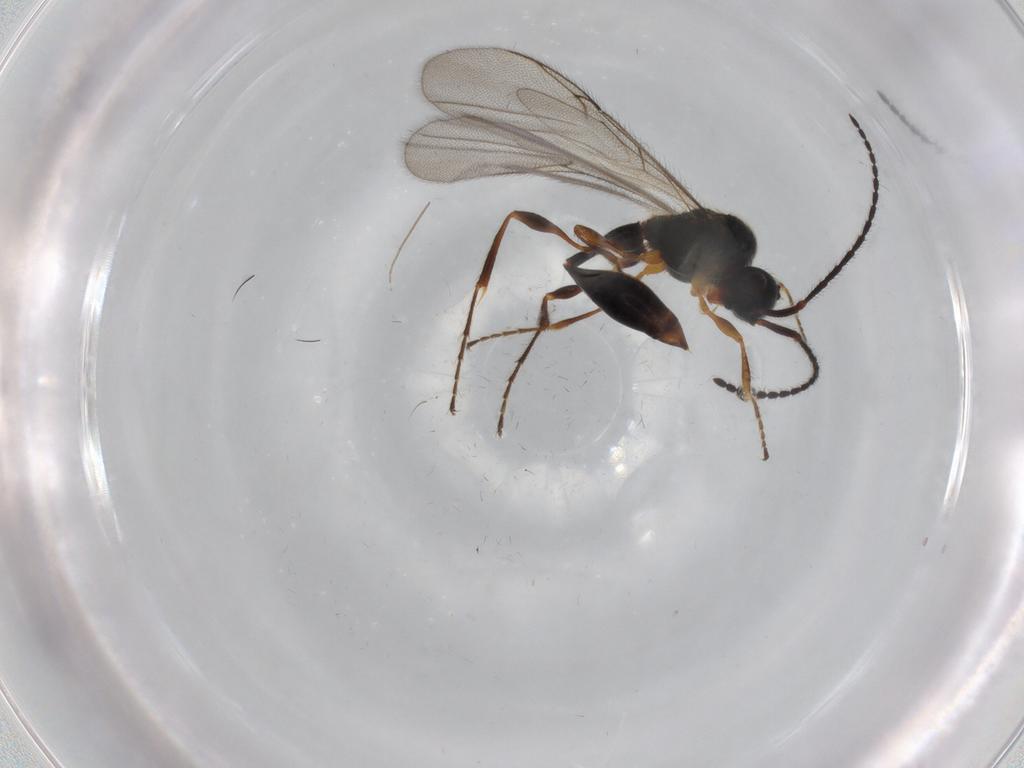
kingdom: Animalia
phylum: Arthropoda
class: Insecta
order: Hymenoptera
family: Diapriidae
